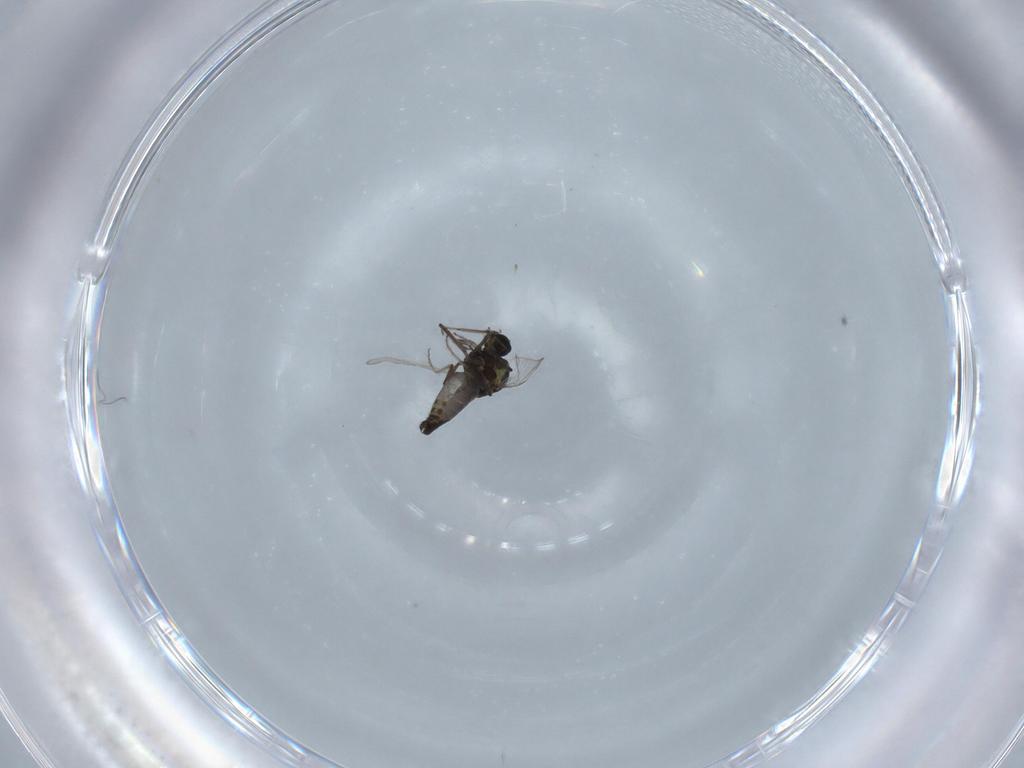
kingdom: Animalia
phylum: Arthropoda
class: Insecta
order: Diptera
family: Ceratopogonidae
